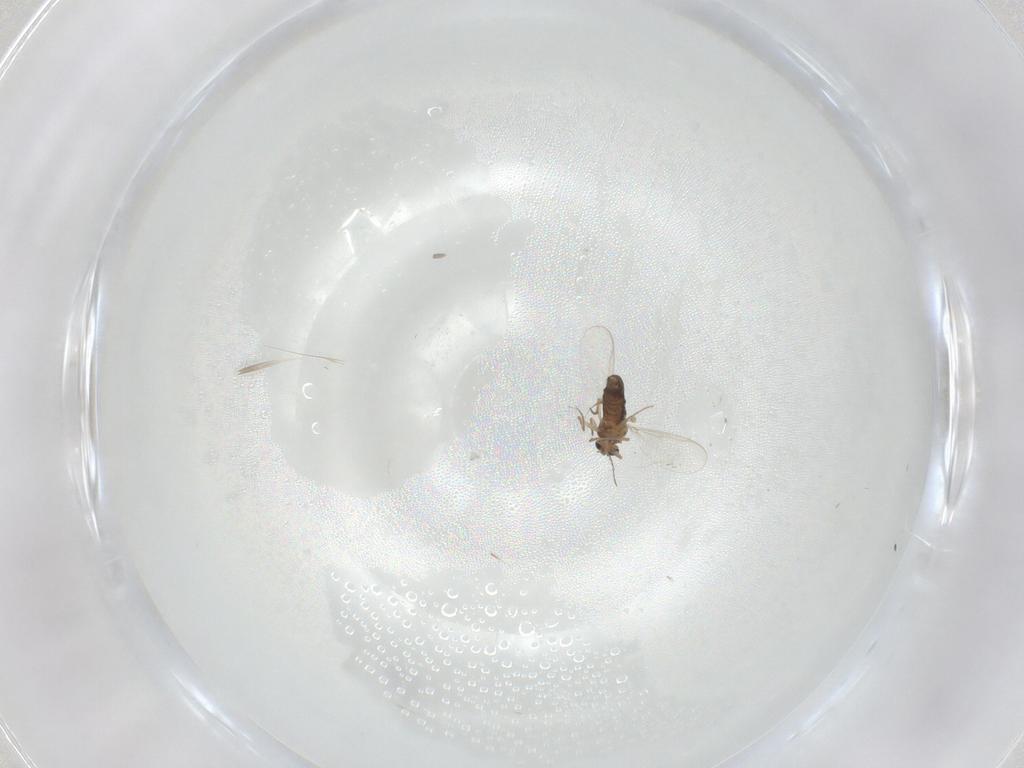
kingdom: Animalia
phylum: Arthropoda
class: Insecta
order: Diptera
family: Chironomidae
